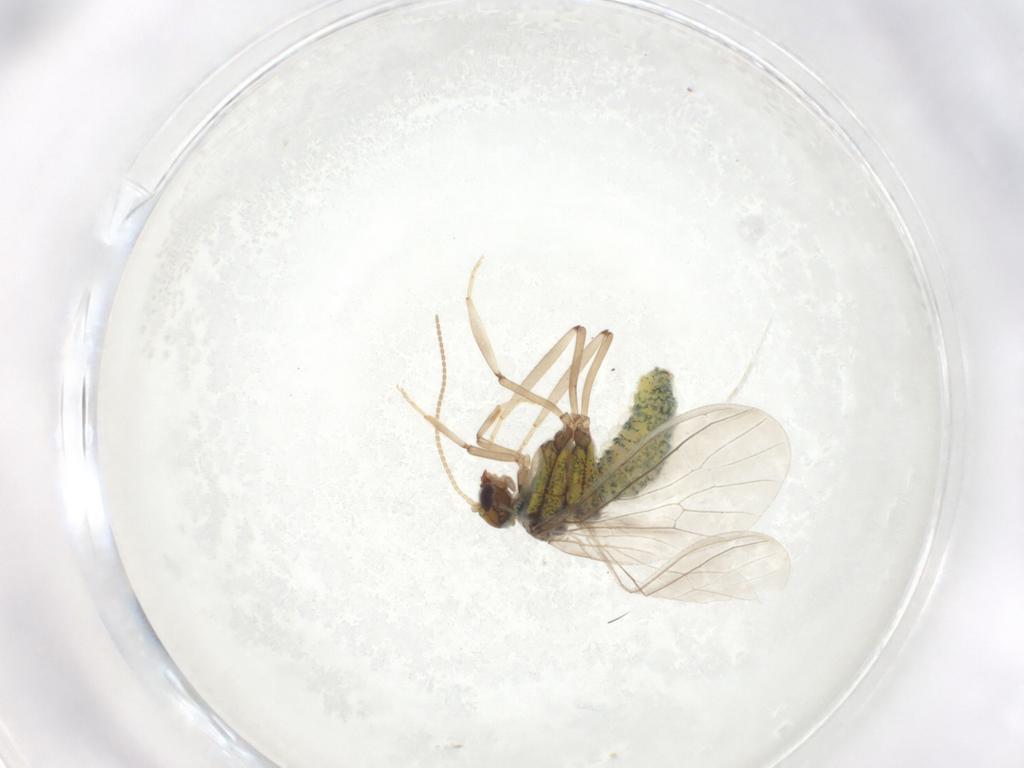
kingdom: Animalia
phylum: Arthropoda
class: Insecta
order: Neuroptera
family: Coniopterygidae
